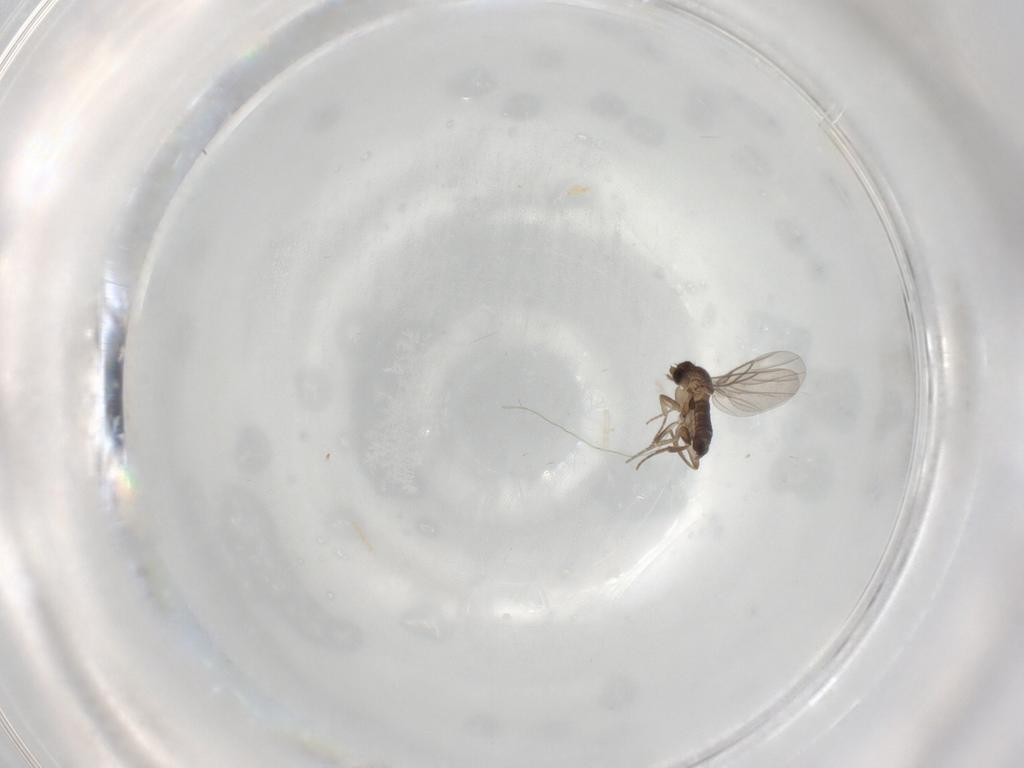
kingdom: Animalia
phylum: Arthropoda
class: Insecta
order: Diptera
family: Phoridae
